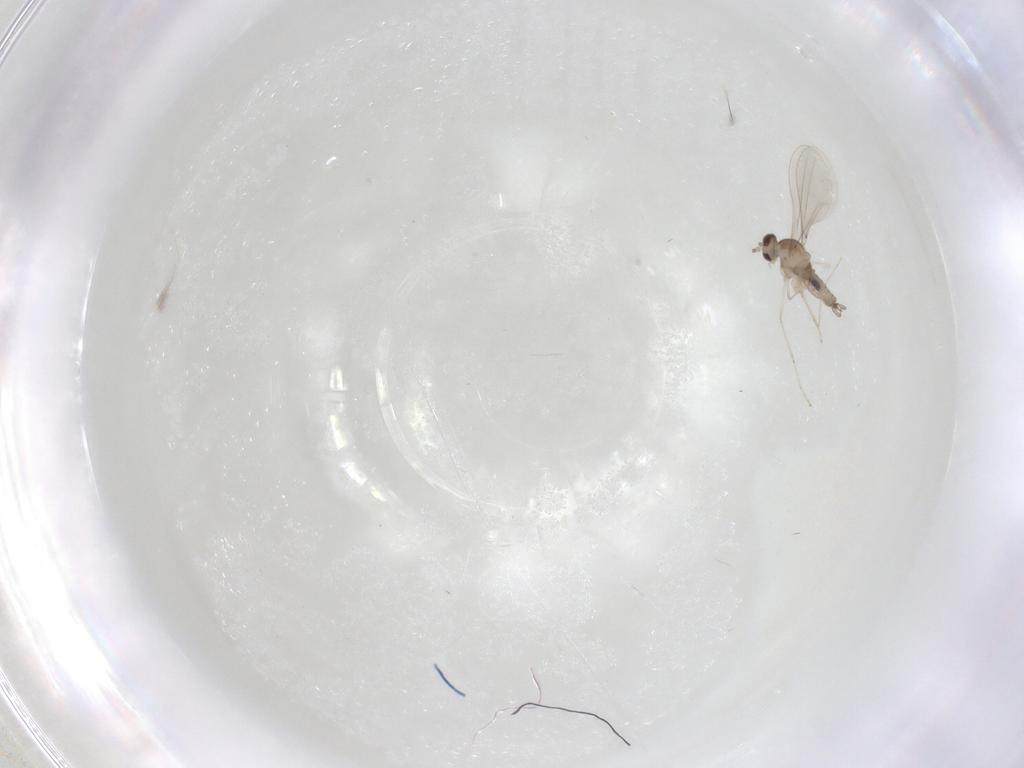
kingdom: Animalia
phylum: Arthropoda
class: Insecta
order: Diptera
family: Cecidomyiidae
